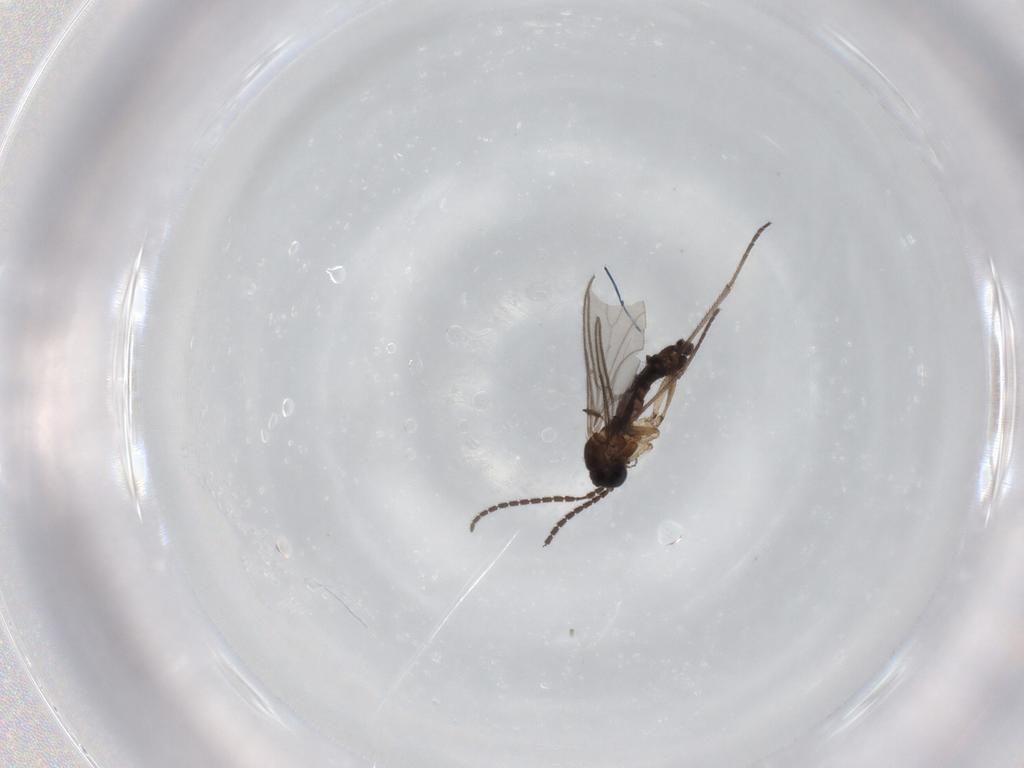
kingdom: Animalia
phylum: Arthropoda
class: Insecta
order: Diptera
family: Sciaridae
